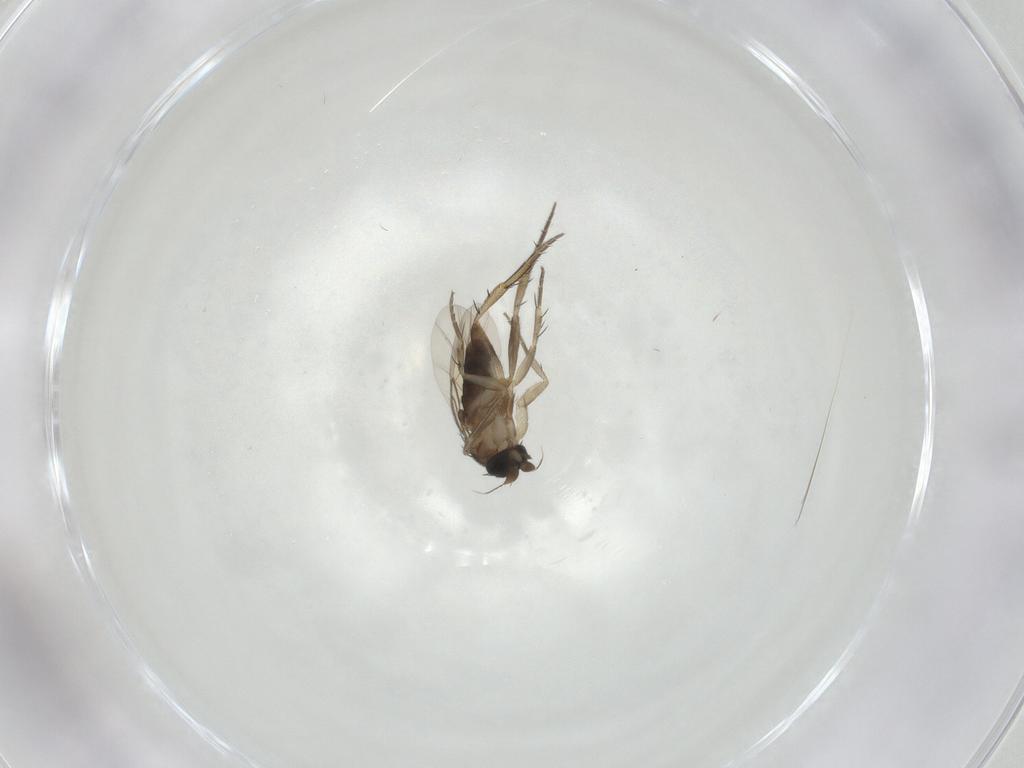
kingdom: Animalia
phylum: Arthropoda
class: Insecta
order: Diptera
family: Phoridae
